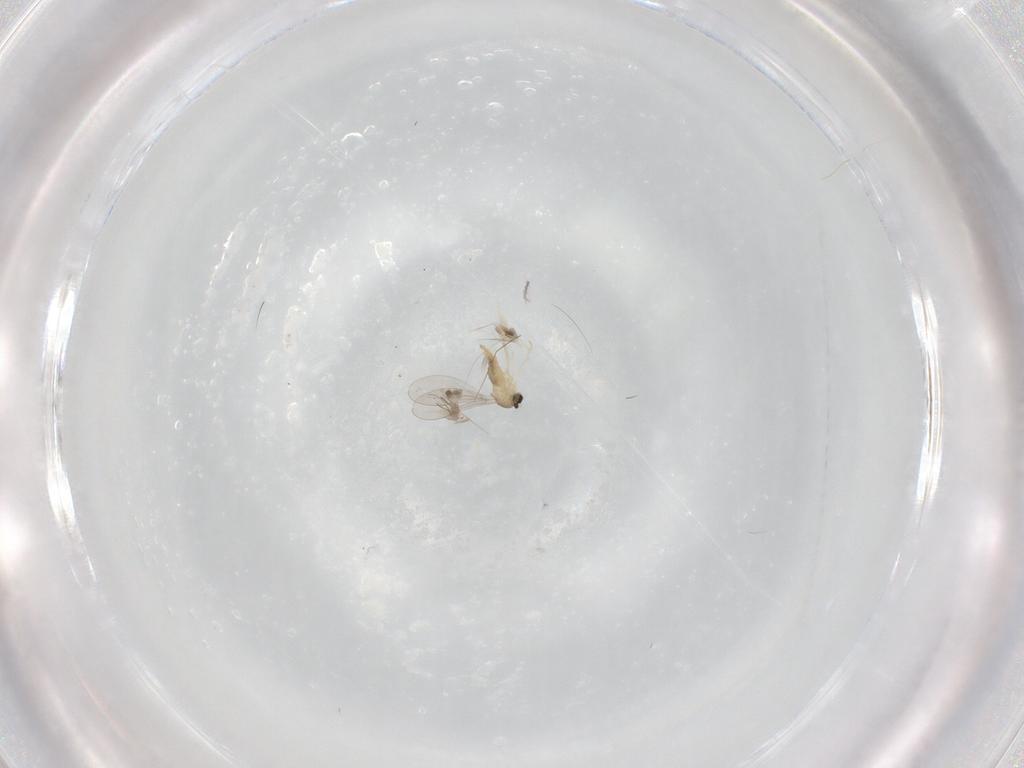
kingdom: Animalia
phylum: Arthropoda
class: Insecta
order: Diptera
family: Cecidomyiidae
